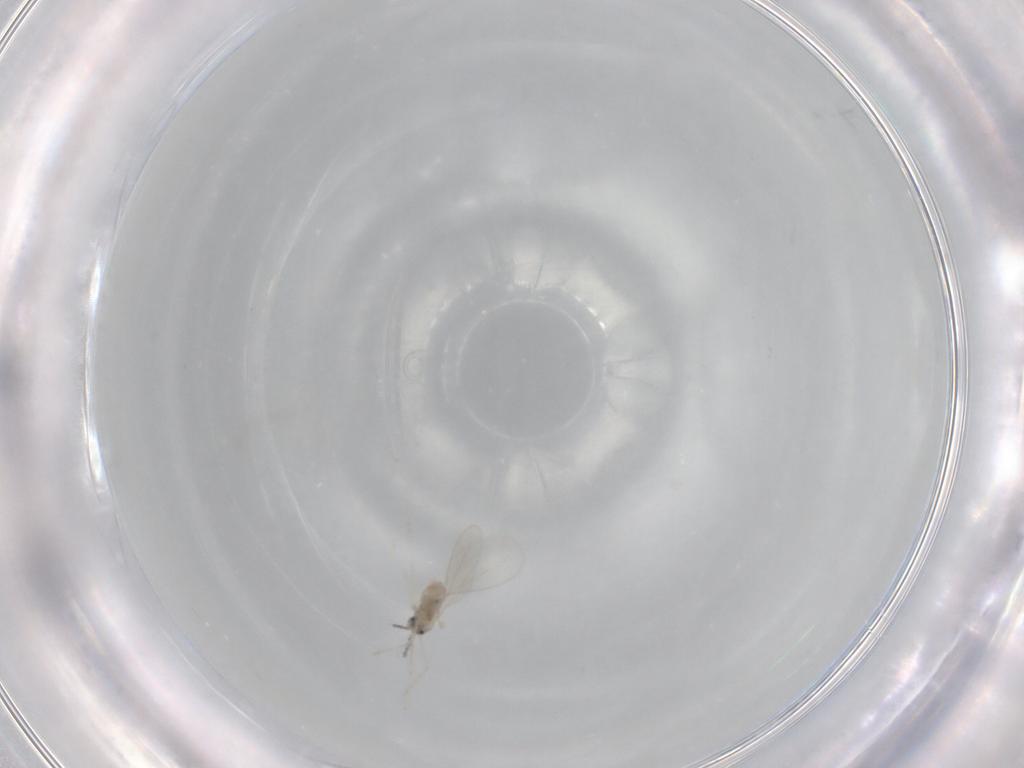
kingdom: Animalia
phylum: Arthropoda
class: Insecta
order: Diptera
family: Cecidomyiidae
